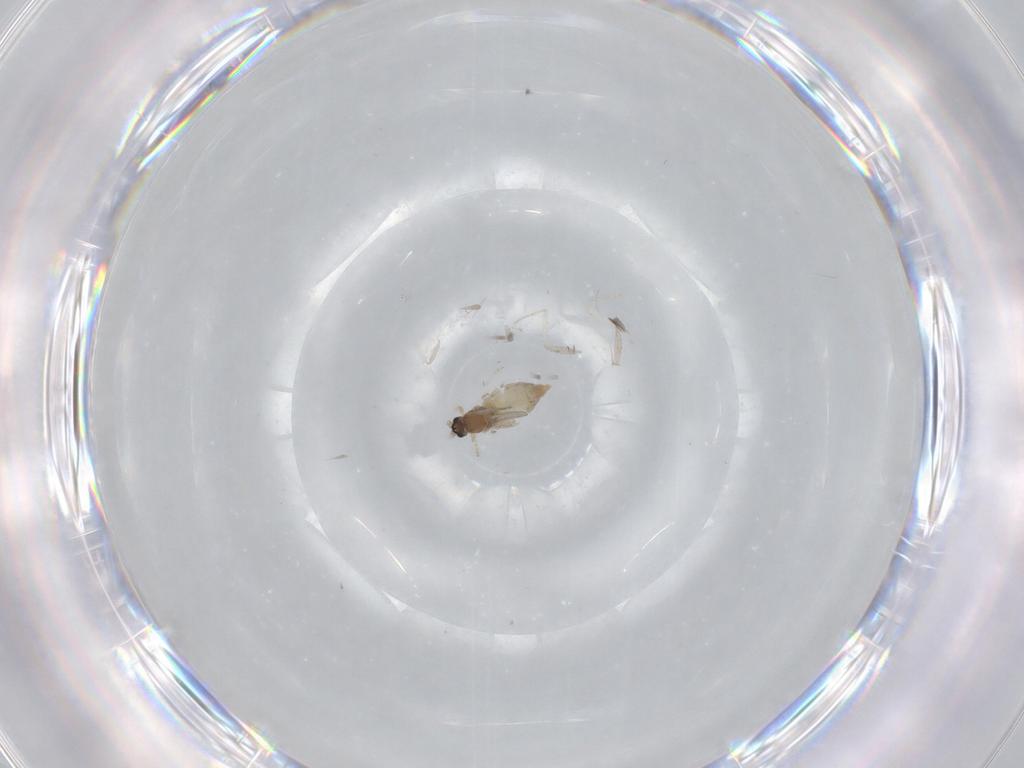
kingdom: Animalia
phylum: Arthropoda
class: Insecta
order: Diptera
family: Cecidomyiidae
